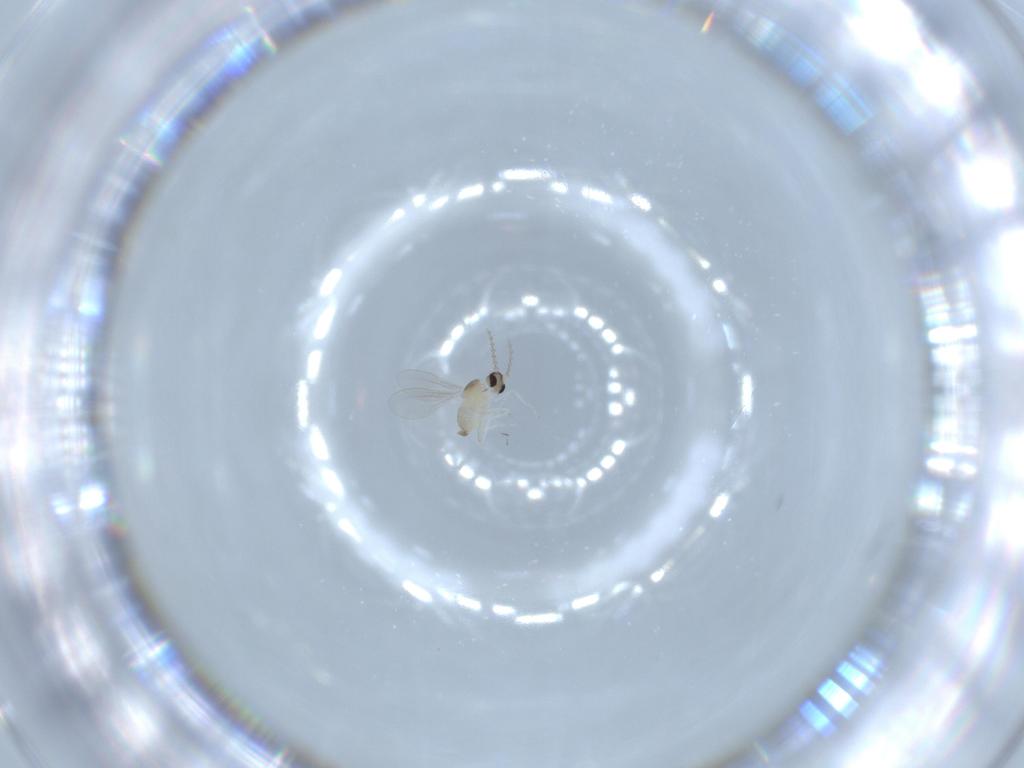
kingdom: Animalia
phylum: Arthropoda
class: Insecta
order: Diptera
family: Cecidomyiidae
